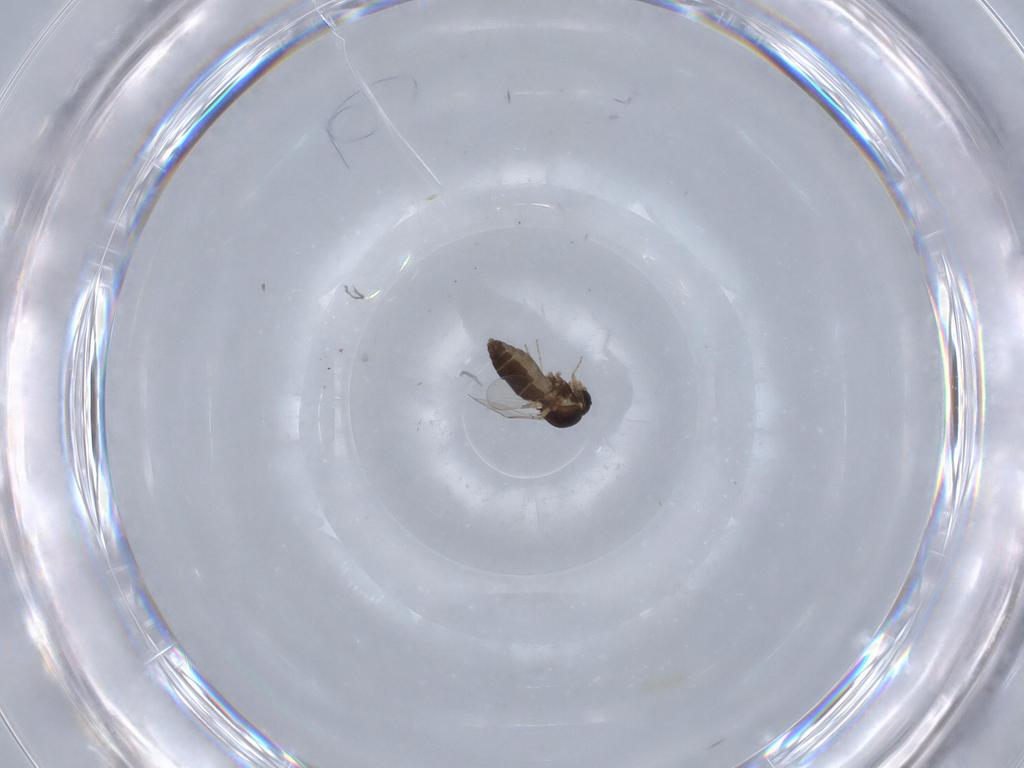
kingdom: Animalia
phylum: Arthropoda
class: Insecta
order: Diptera
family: Ceratopogonidae
